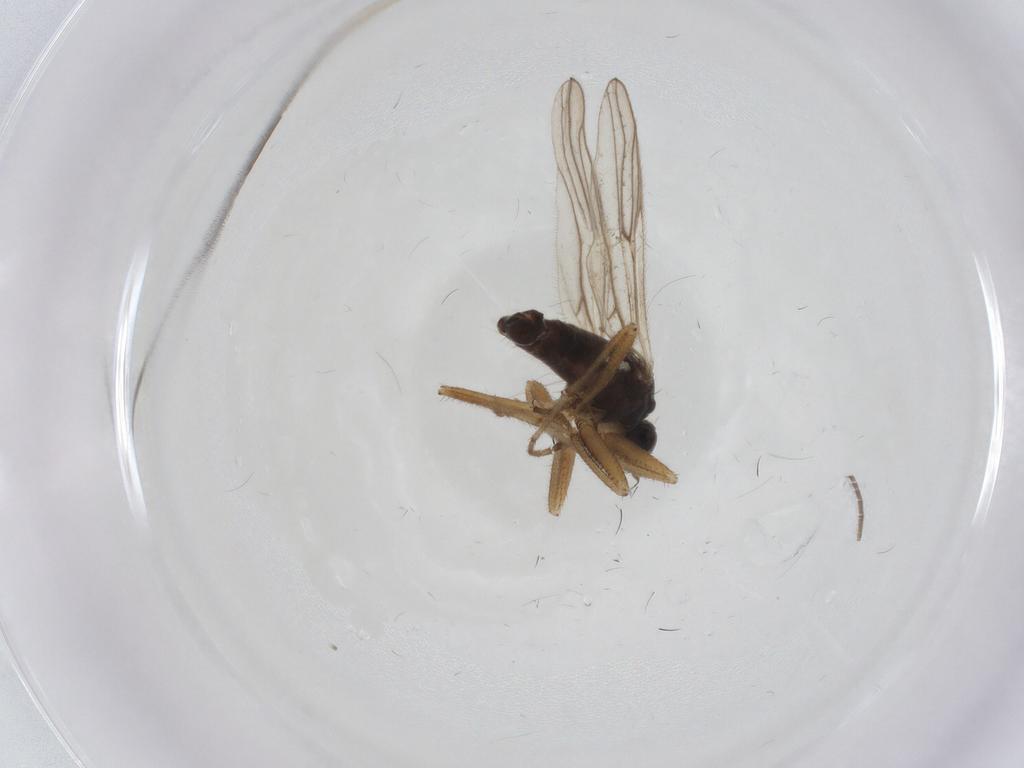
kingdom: Animalia
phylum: Arthropoda
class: Insecta
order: Diptera
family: Hybotidae
